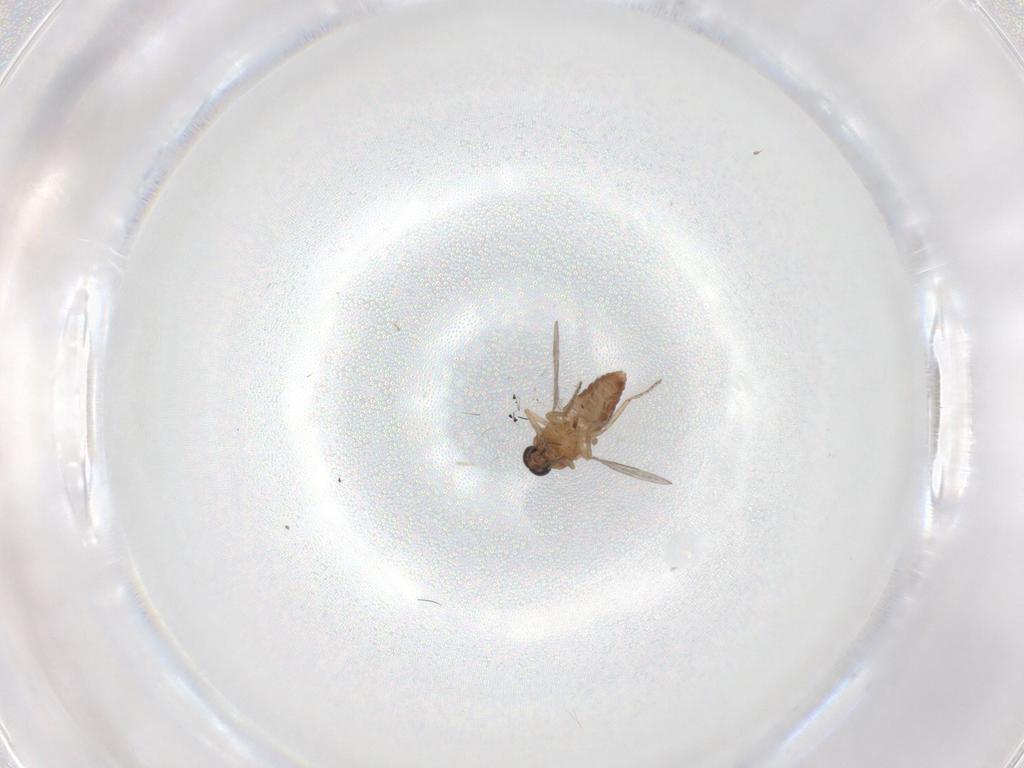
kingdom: Animalia
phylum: Arthropoda
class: Insecta
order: Diptera
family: Ceratopogonidae
